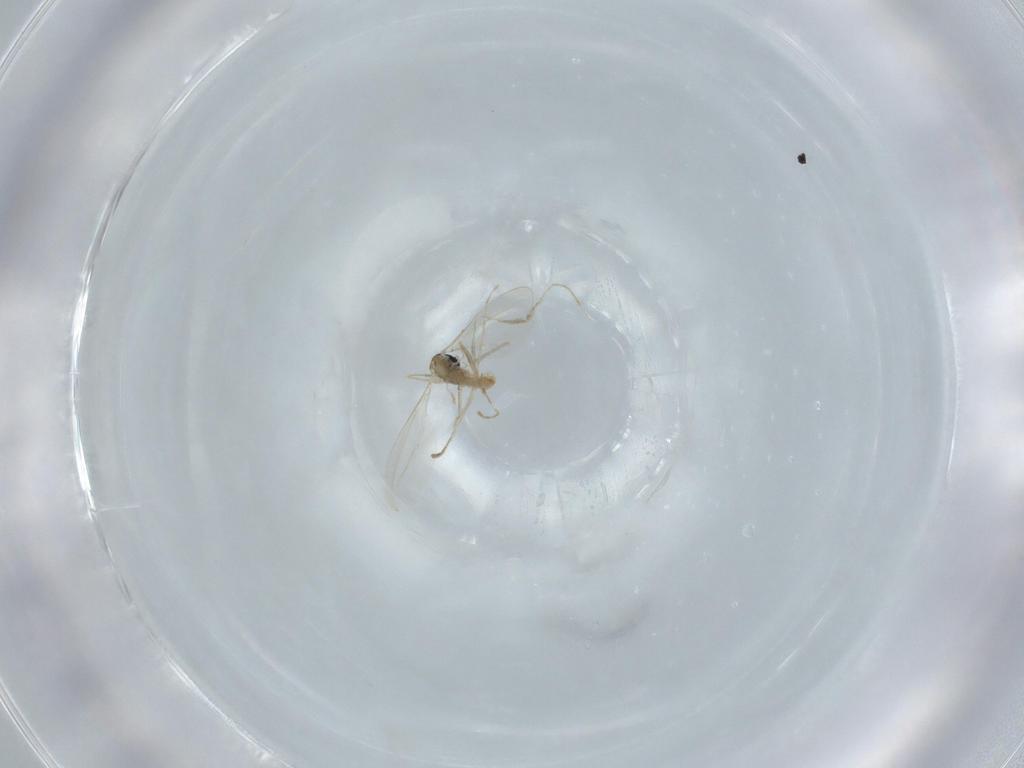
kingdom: Animalia
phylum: Arthropoda
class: Insecta
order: Diptera
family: Cecidomyiidae
